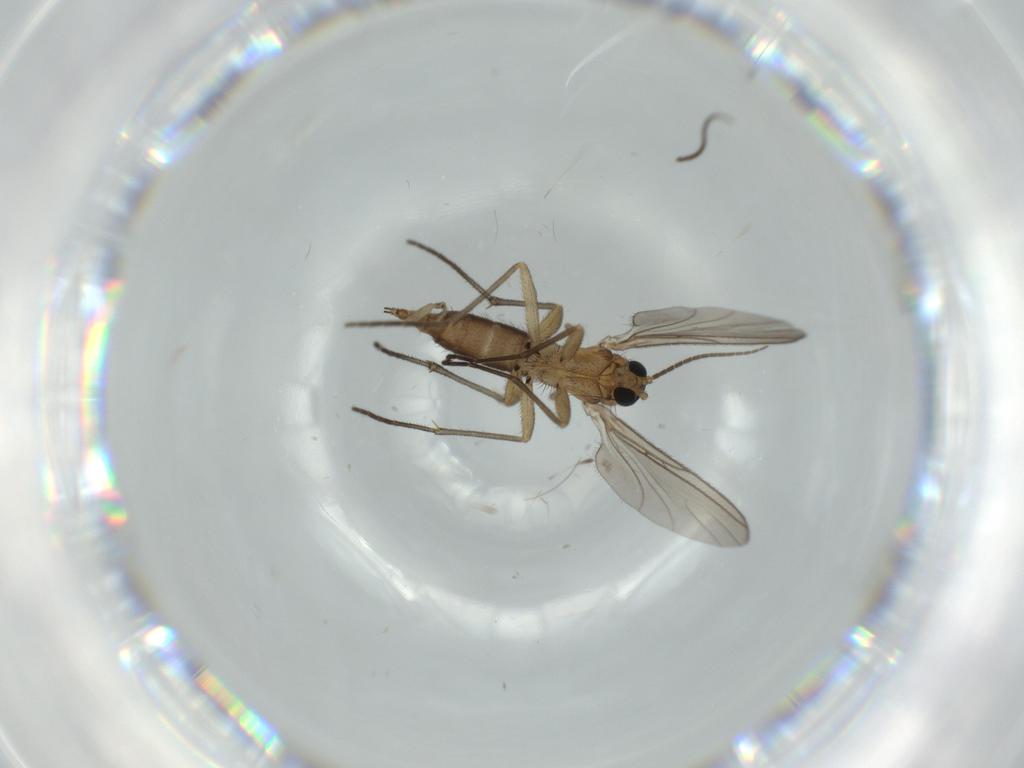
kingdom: Animalia
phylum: Arthropoda
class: Insecta
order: Diptera
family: Sciaridae
